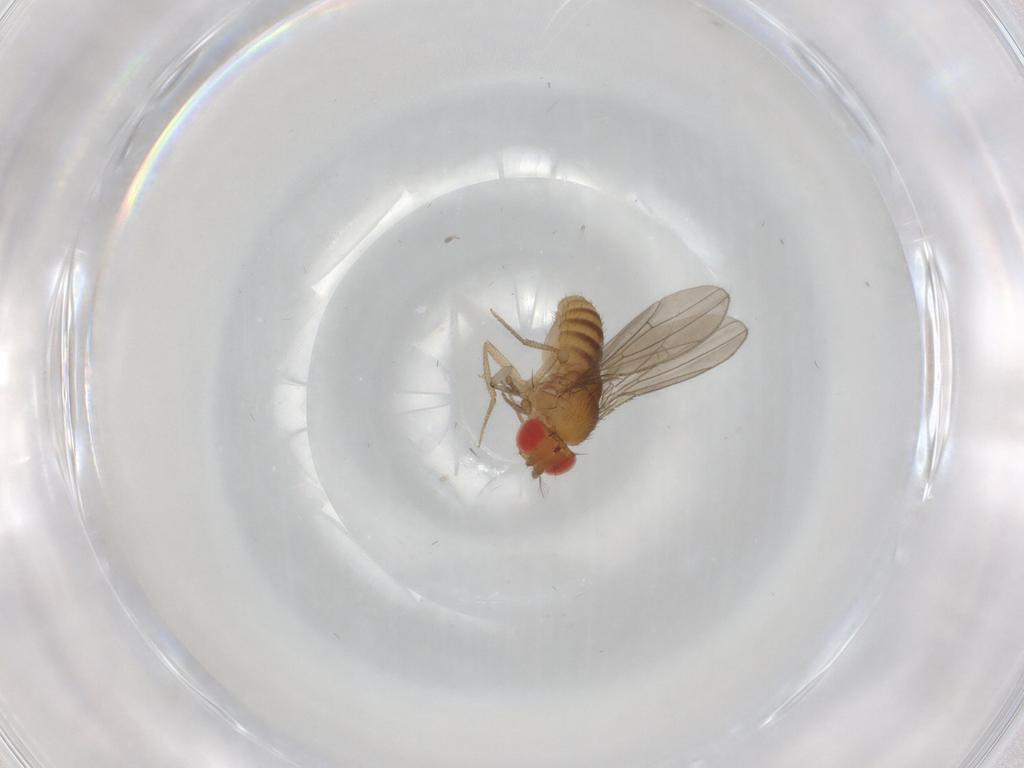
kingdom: Animalia
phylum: Arthropoda
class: Insecta
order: Diptera
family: Drosophilidae
